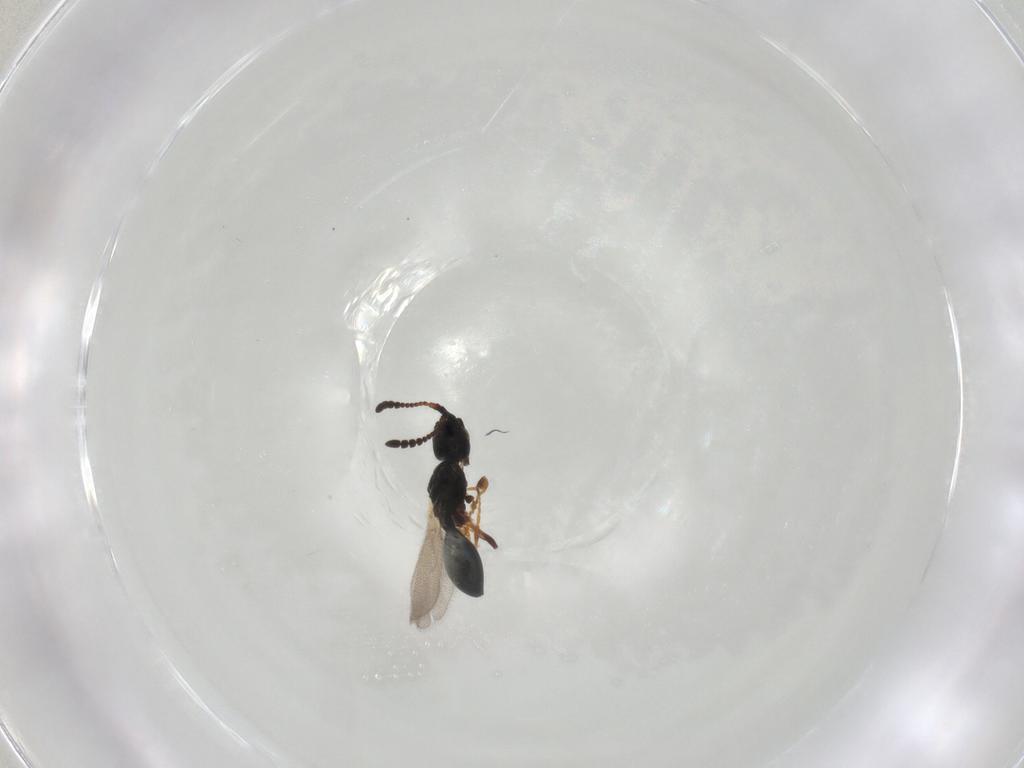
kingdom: Animalia
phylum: Arthropoda
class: Insecta
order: Hymenoptera
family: Diapriidae
